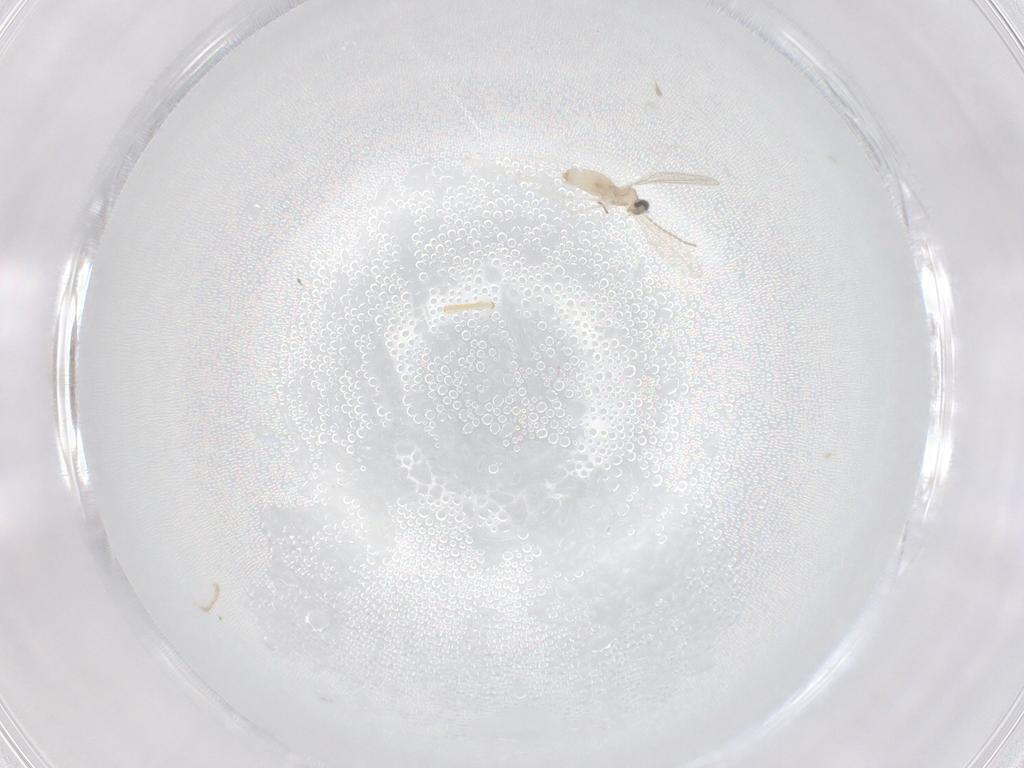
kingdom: Animalia
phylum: Arthropoda
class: Insecta
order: Diptera
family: Cecidomyiidae
